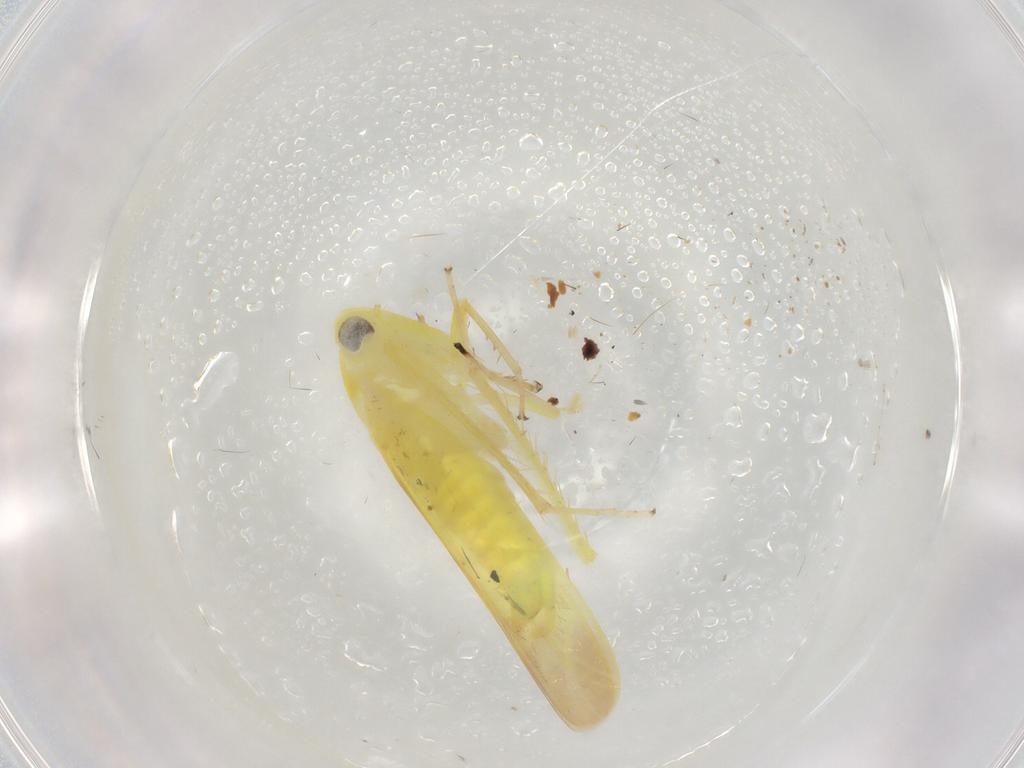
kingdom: Animalia
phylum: Arthropoda
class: Insecta
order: Hemiptera
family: Cicadellidae
